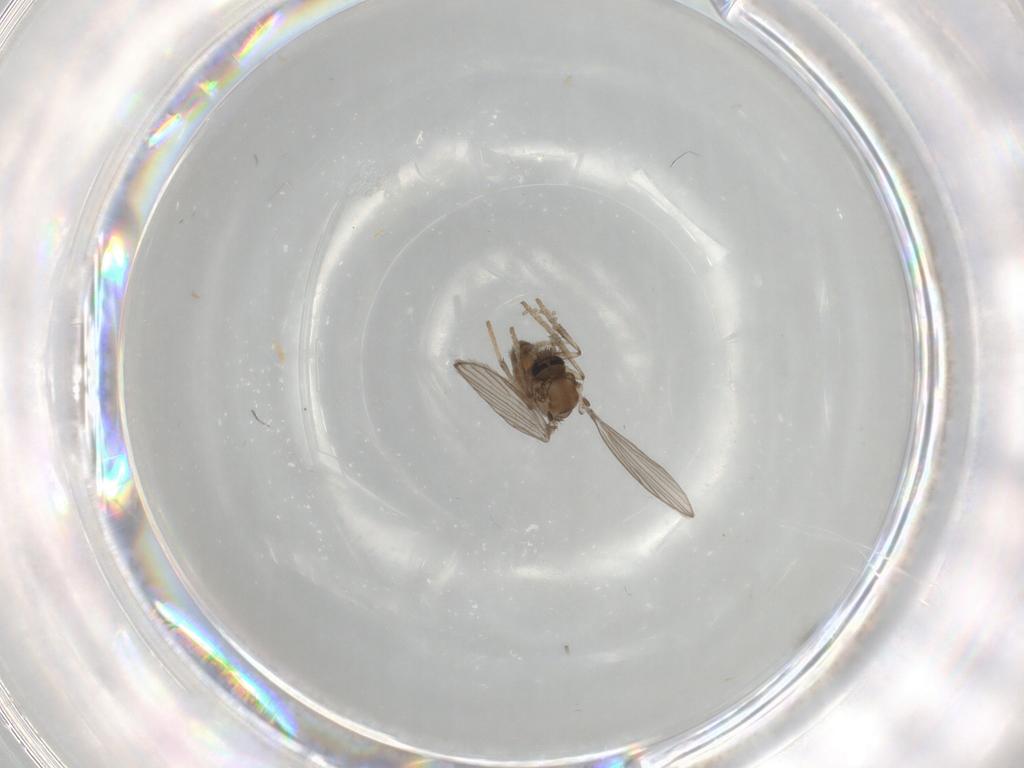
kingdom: Animalia
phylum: Arthropoda
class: Insecta
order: Diptera
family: Psychodidae
